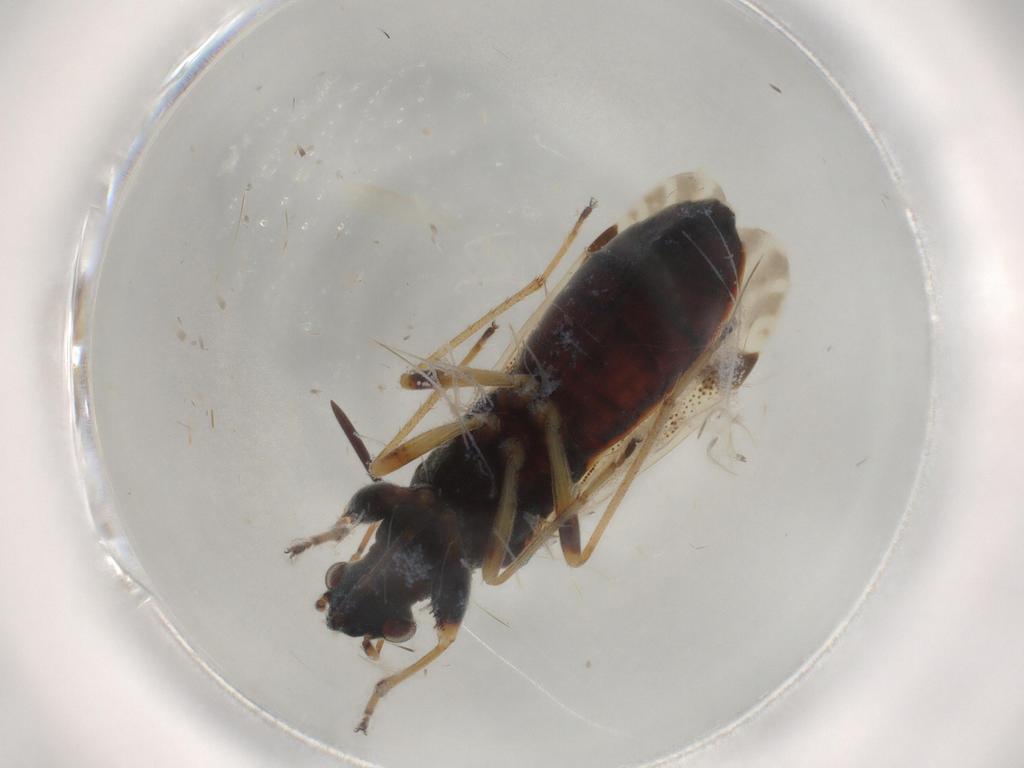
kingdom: Animalia
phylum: Arthropoda
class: Insecta
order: Hemiptera
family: Rhyparochromidae
